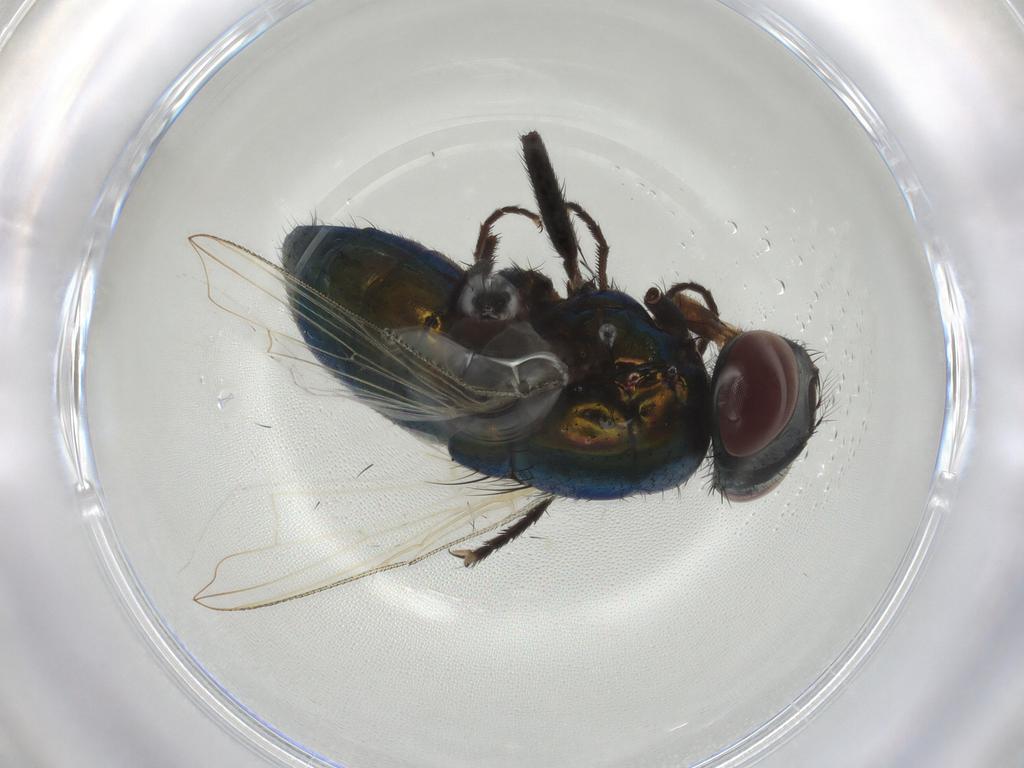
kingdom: Animalia
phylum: Arthropoda
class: Insecta
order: Diptera
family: Muscidae
